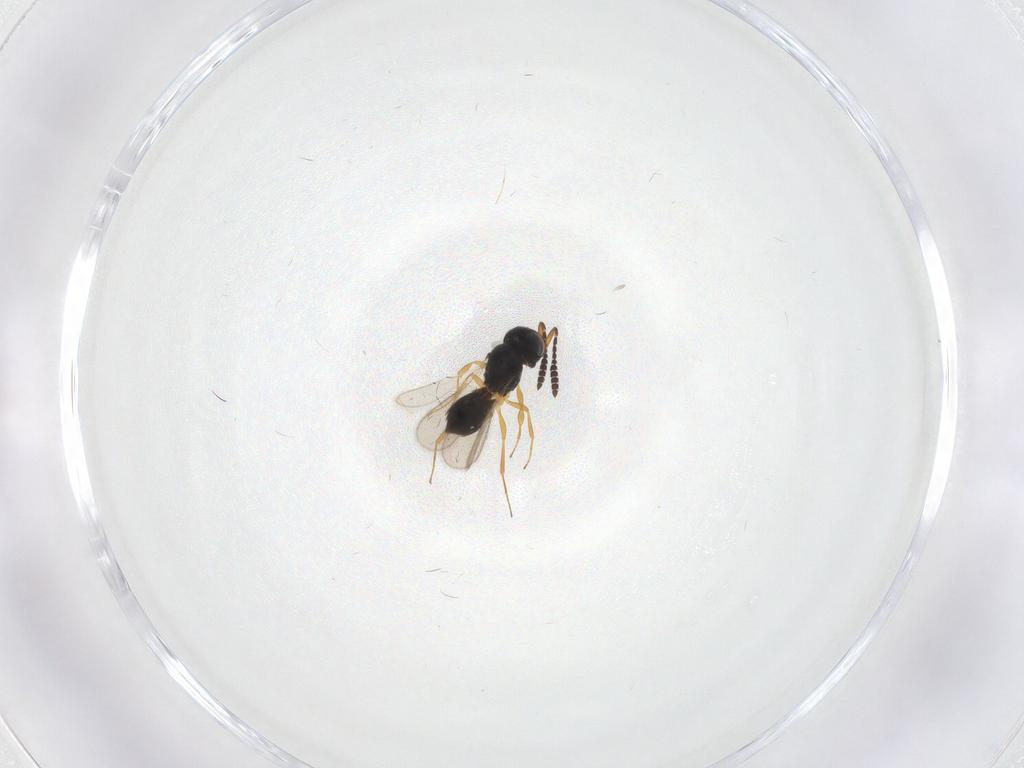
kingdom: Animalia
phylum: Arthropoda
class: Insecta
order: Hymenoptera
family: Scelionidae
